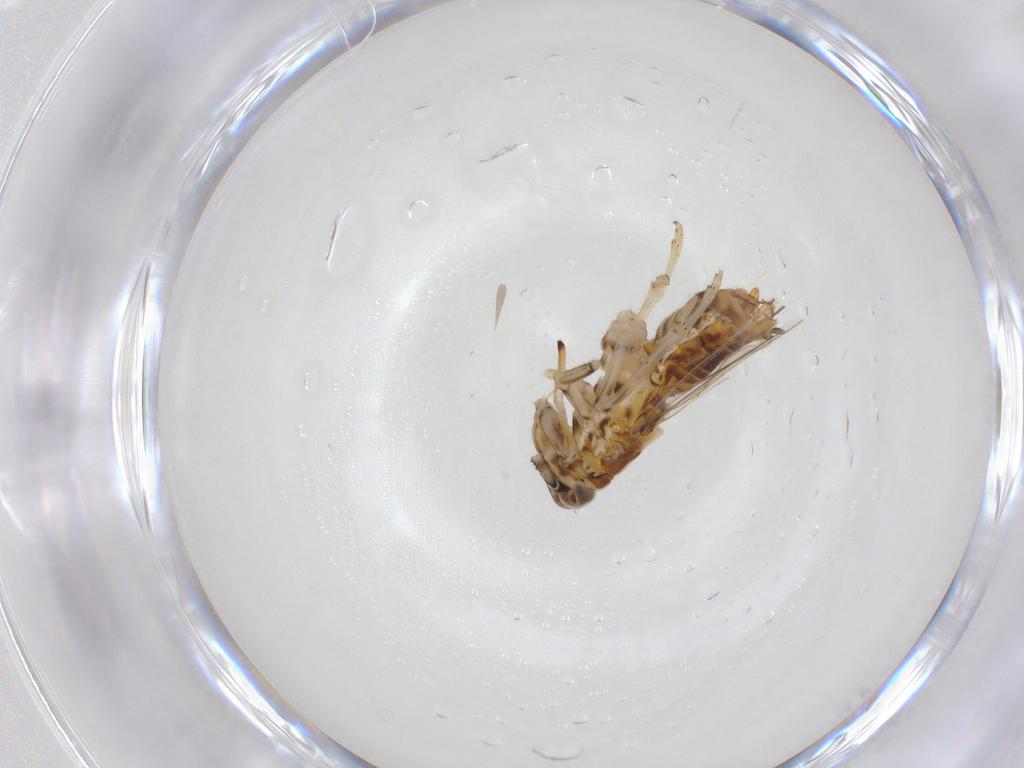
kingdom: Animalia
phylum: Arthropoda
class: Insecta
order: Hemiptera
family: Delphacidae
